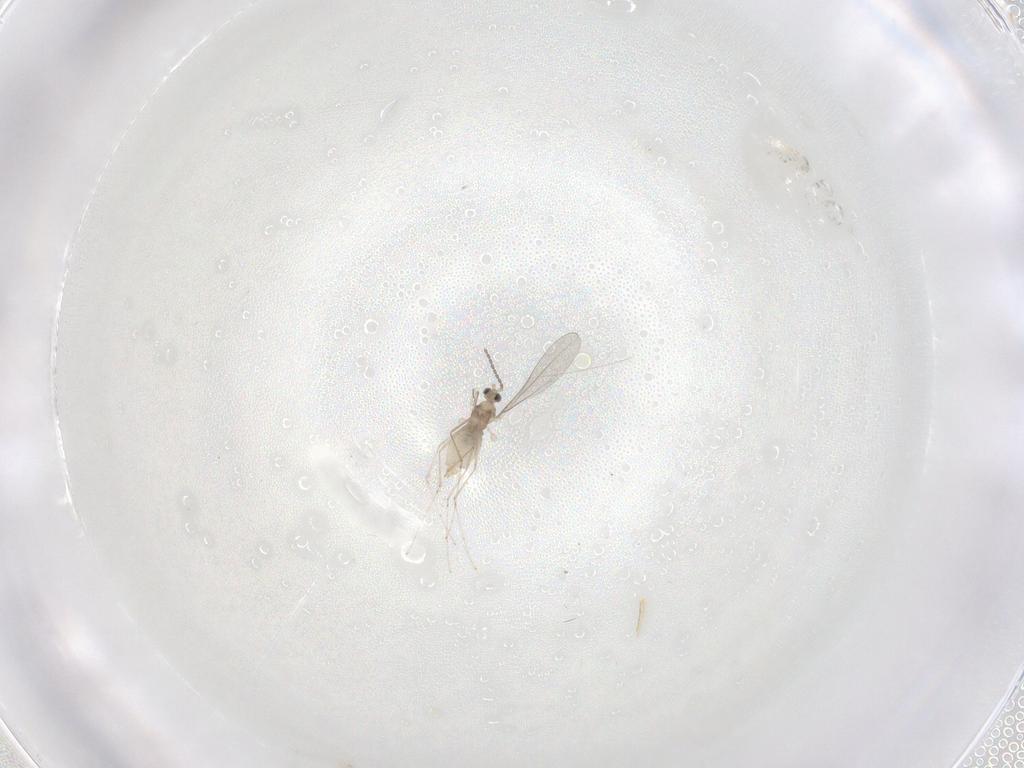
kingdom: Animalia
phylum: Arthropoda
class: Insecta
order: Diptera
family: Cecidomyiidae
